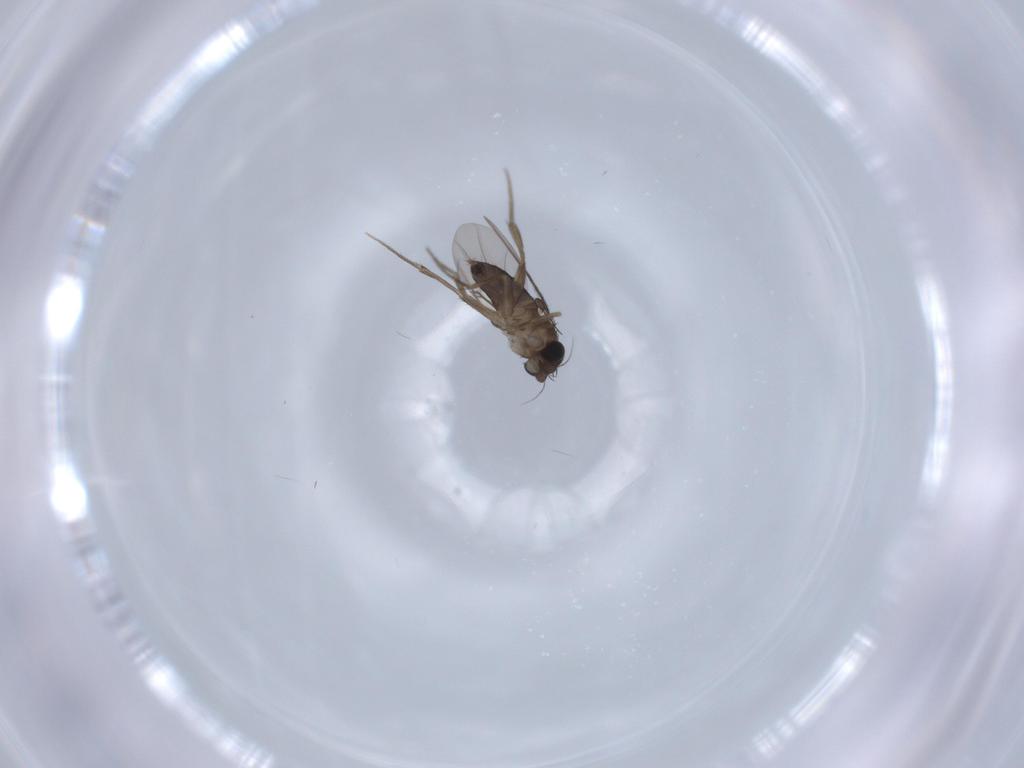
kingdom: Animalia
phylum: Arthropoda
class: Insecta
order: Diptera
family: Phoridae
